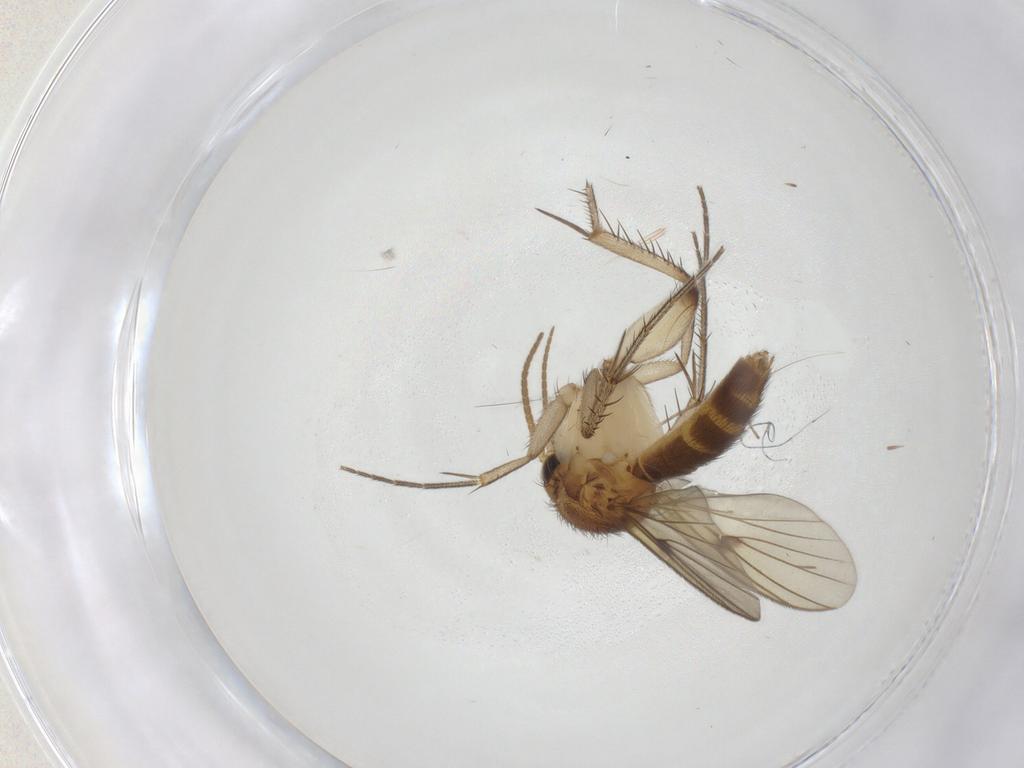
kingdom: Animalia
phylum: Arthropoda
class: Insecta
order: Diptera
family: Mycetophilidae
